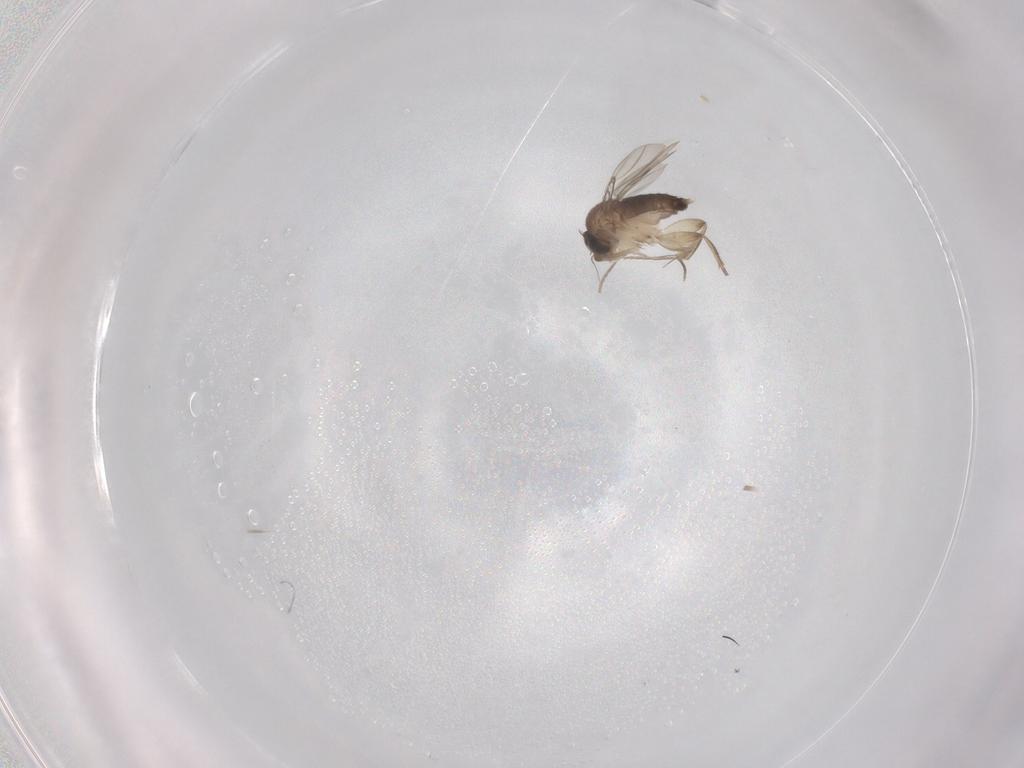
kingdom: Animalia
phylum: Arthropoda
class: Insecta
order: Diptera
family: Phoridae
